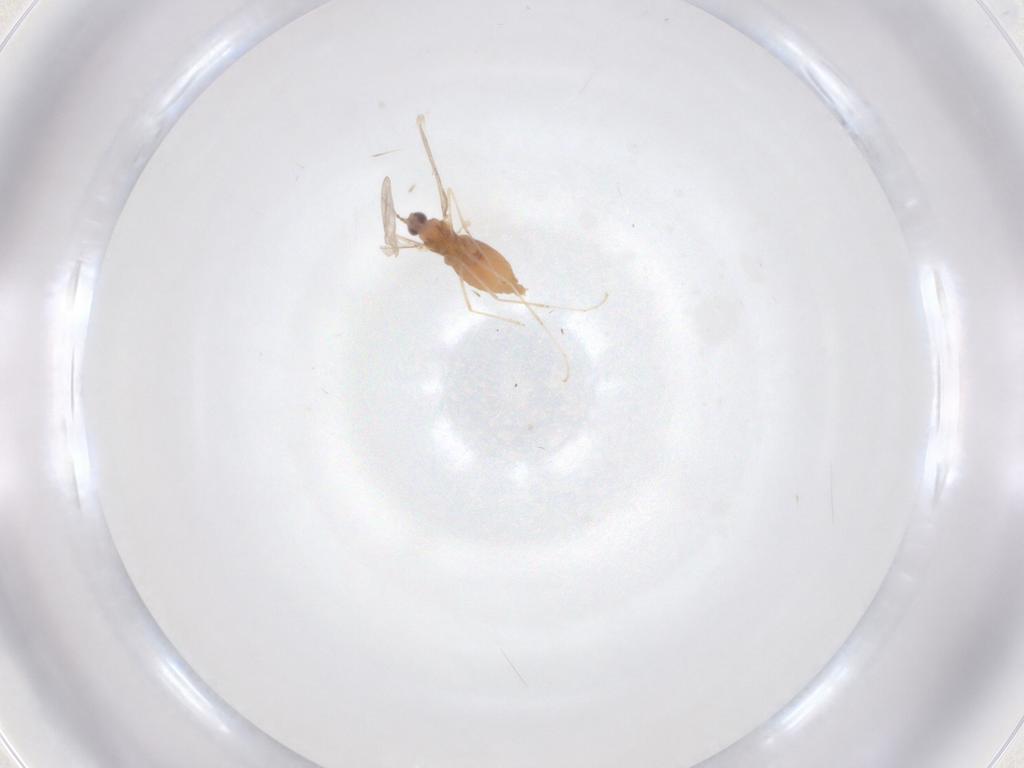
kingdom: Animalia
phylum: Arthropoda
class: Insecta
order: Diptera
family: Cecidomyiidae
